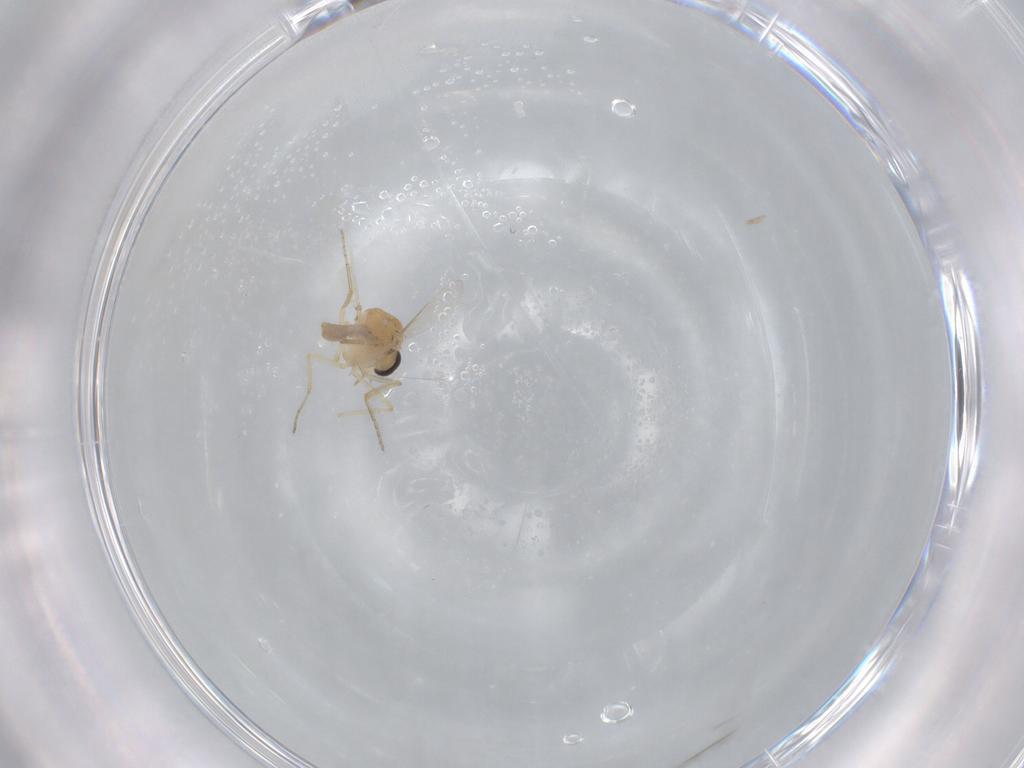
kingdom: Animalia
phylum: Arthropoda
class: Insecta
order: Diptera
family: Ceratopogonidae
